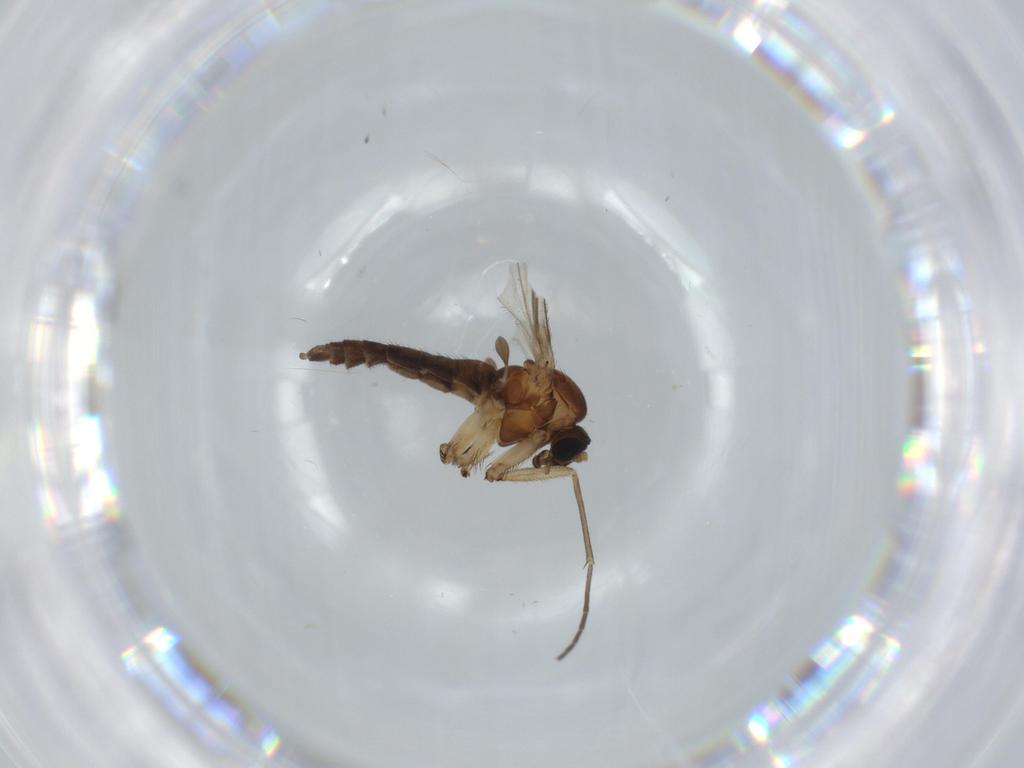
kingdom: Animalia
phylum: Arthropoda
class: Insecta
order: Diptera
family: Sciaridae
